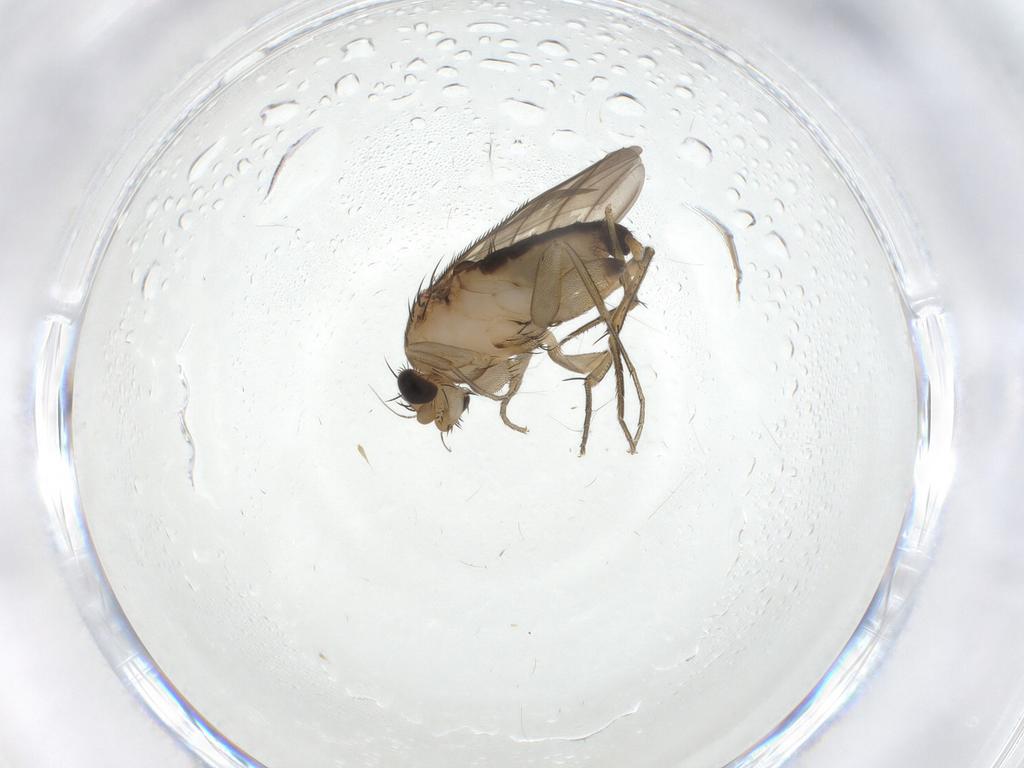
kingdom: Animalia
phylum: Arthropoda
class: Insecta
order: Diptera
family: Phoridae
